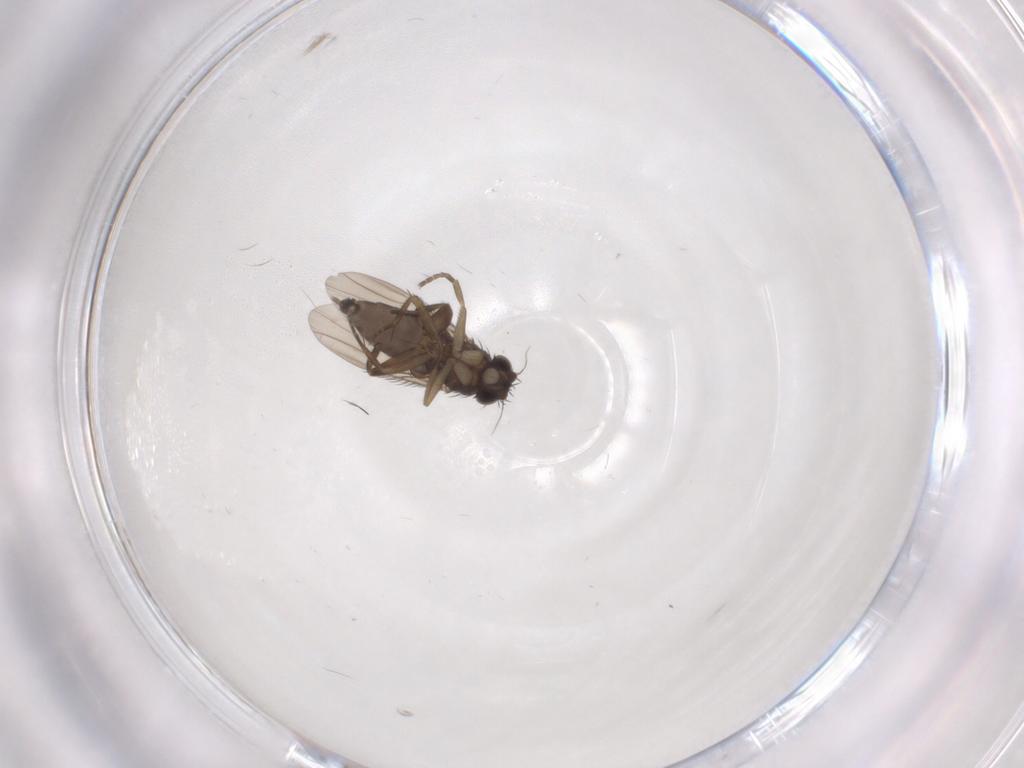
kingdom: Animalia
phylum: Arthropoda
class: Insecta
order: Diptera
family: Phoridae
